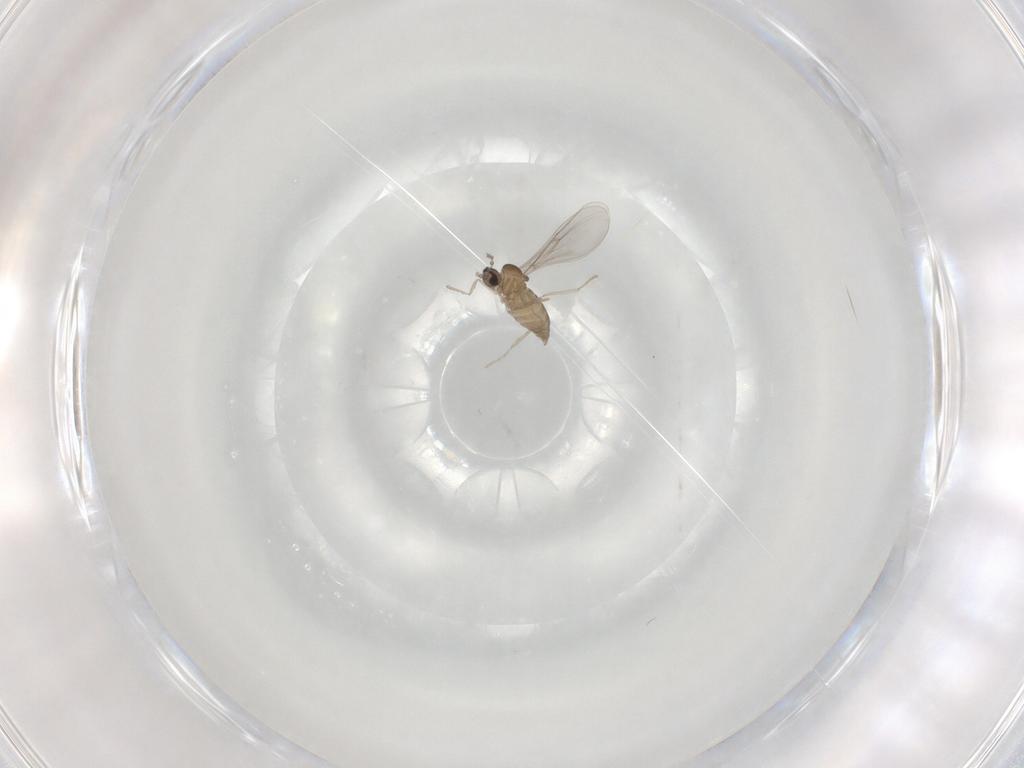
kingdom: Animalia
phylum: Arthropoda
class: Insecta
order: Diptera
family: Cecidomyiidae
